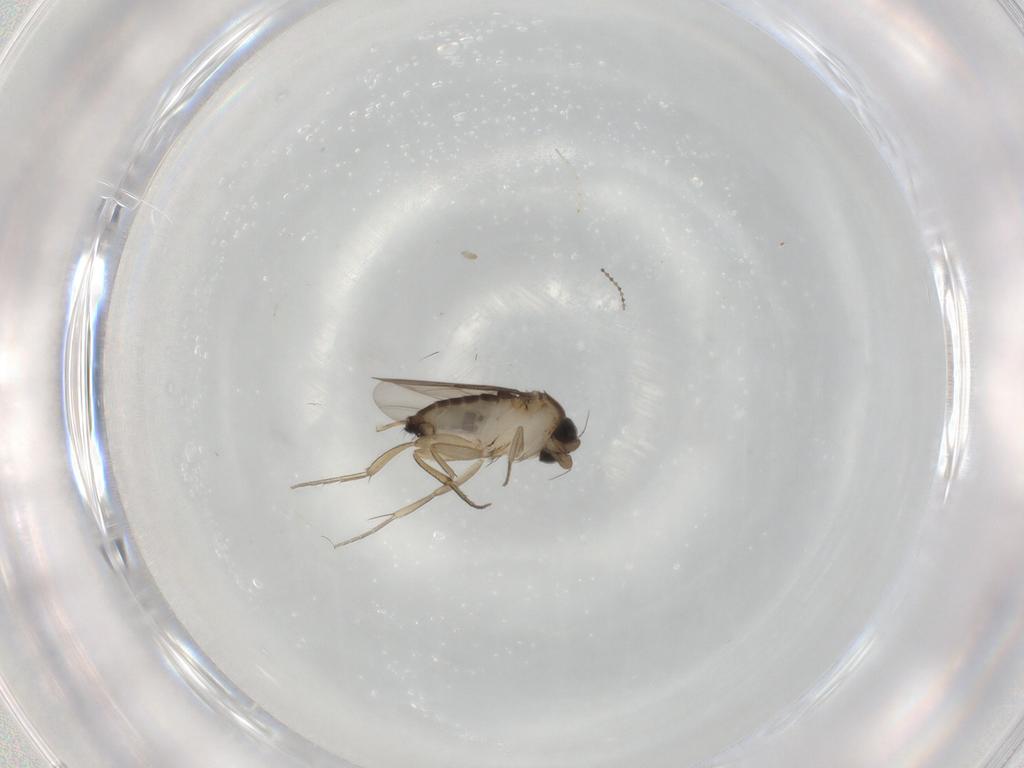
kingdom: Animalia
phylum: Arthropoda
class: Insecta
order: Diptera
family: Phoridae
